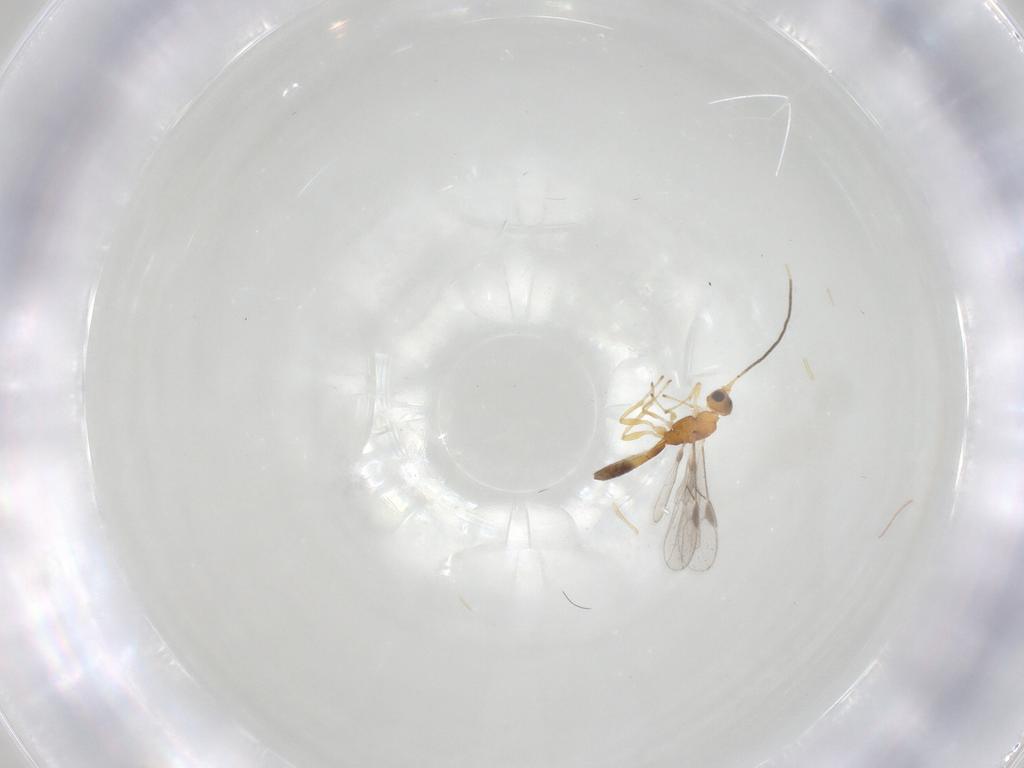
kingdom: Animalia
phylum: Arthropoda
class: Insecta
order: Hymenoptera
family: Braconidae
